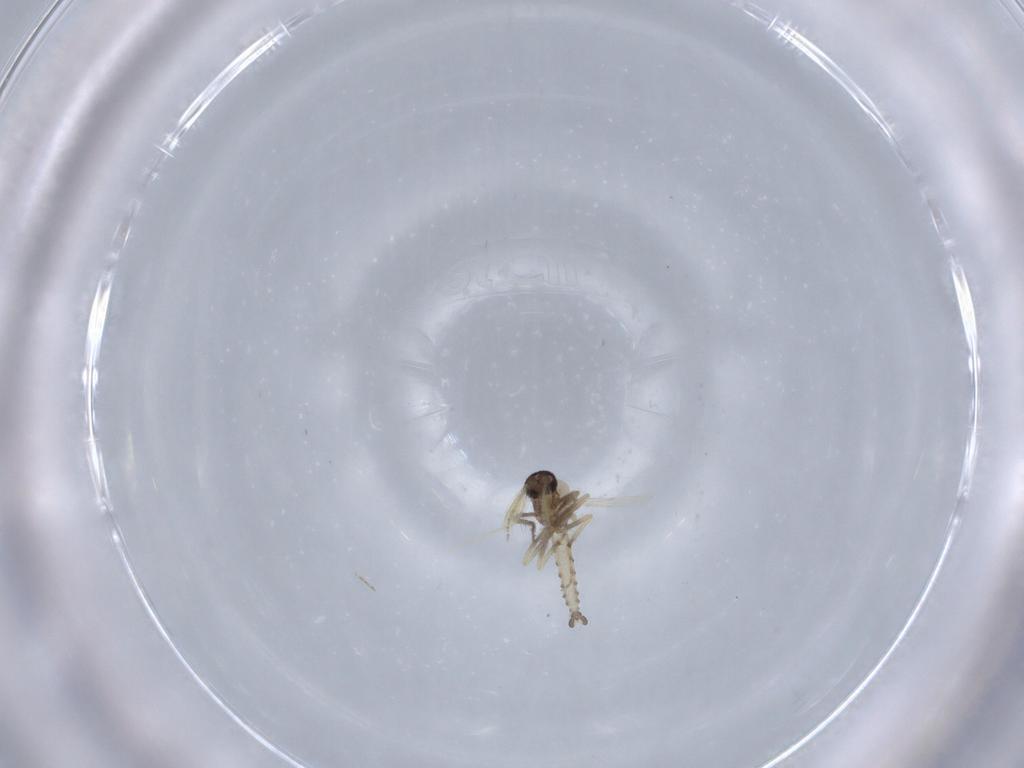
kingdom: Animalia
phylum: Arthropoda
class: Insecta
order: Diptera
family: Ceratopogonidae
